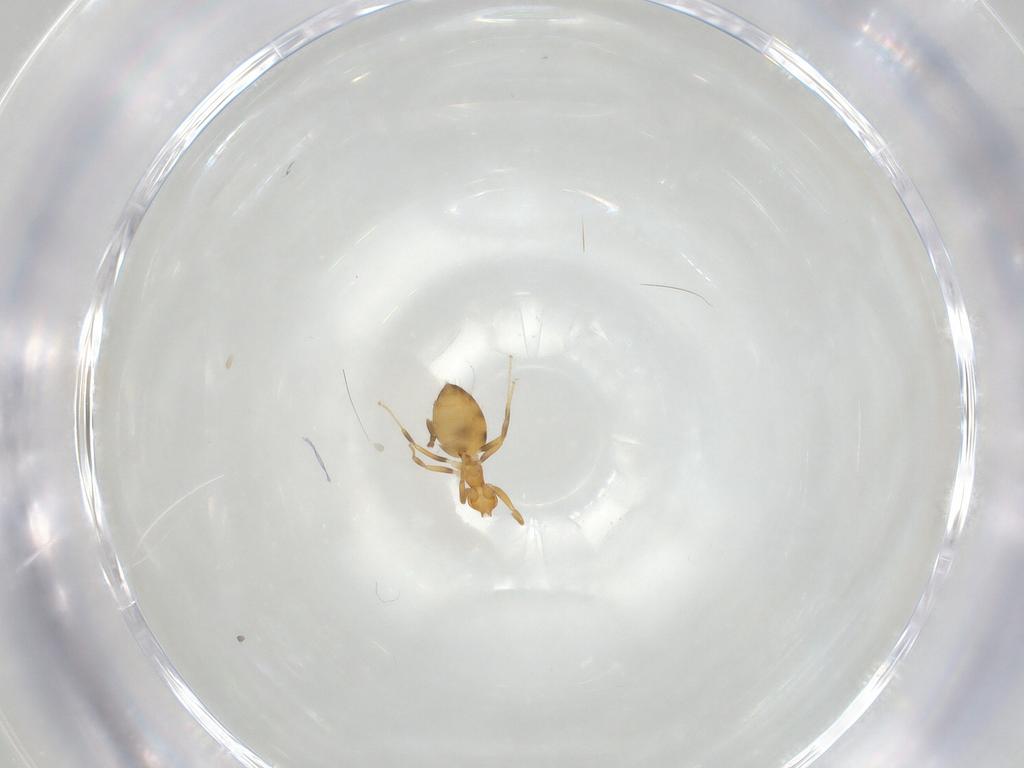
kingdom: Animalia
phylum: Arthropoda
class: Insecta
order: Hymenoptera
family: Formicidae
